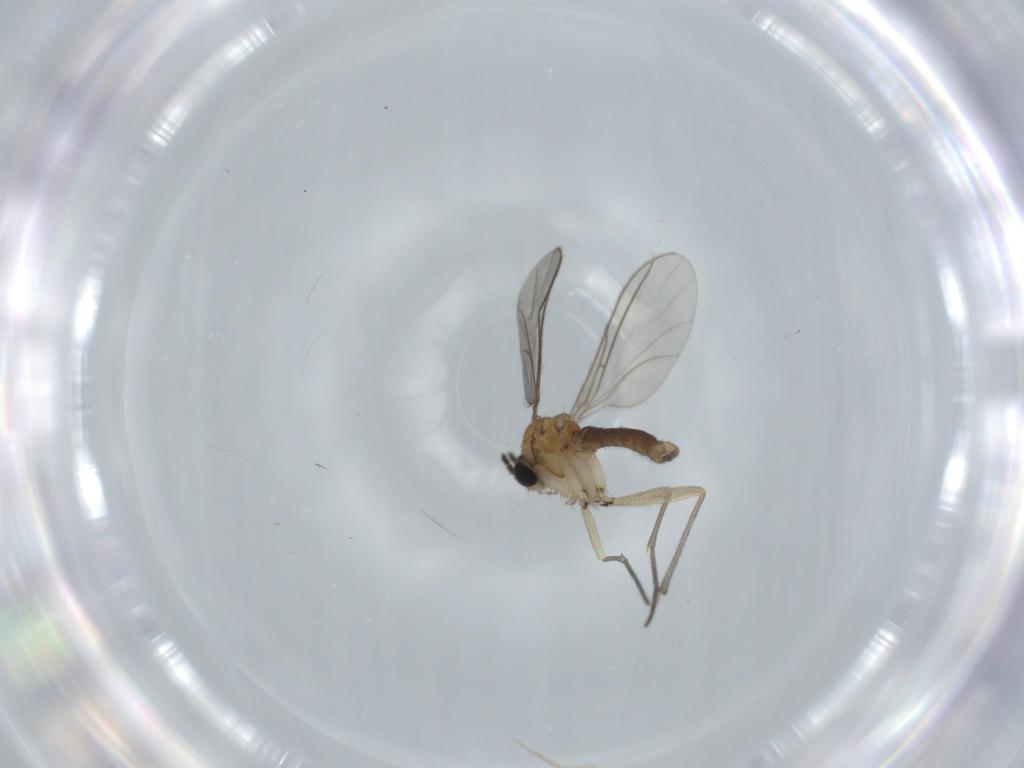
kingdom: Animalia
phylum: Arthropoda
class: Insecta
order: Diptera
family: Sciaridae
